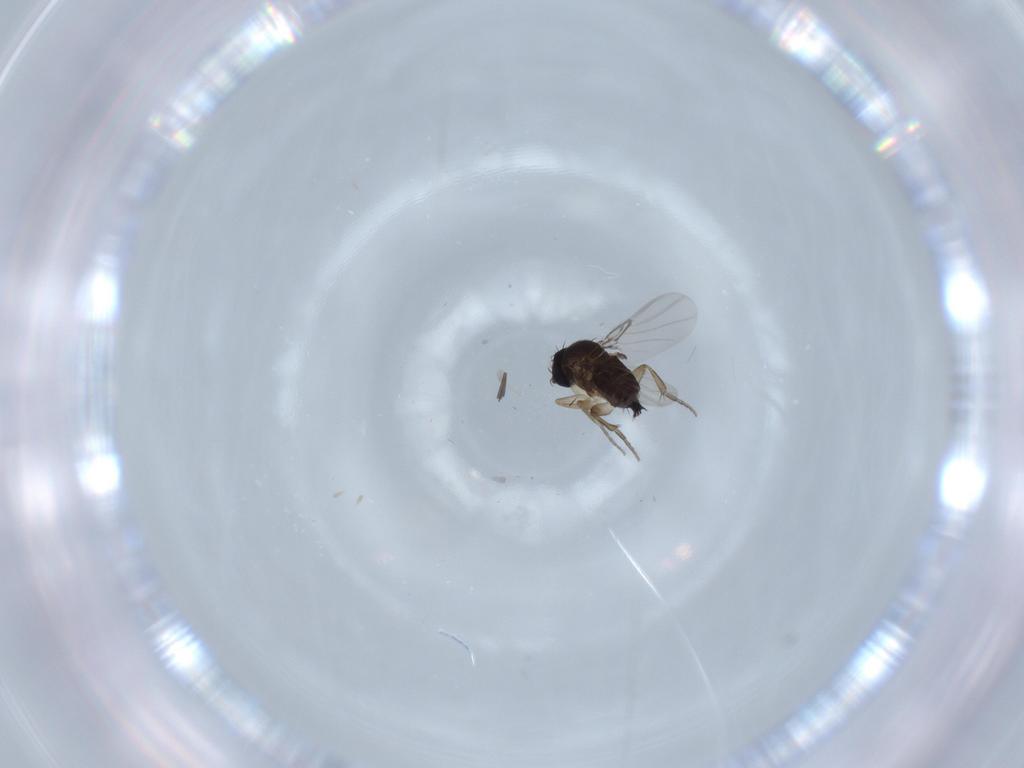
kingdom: Animalia
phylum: Arthropoda
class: Insecta
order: Diptera
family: Phoridae
